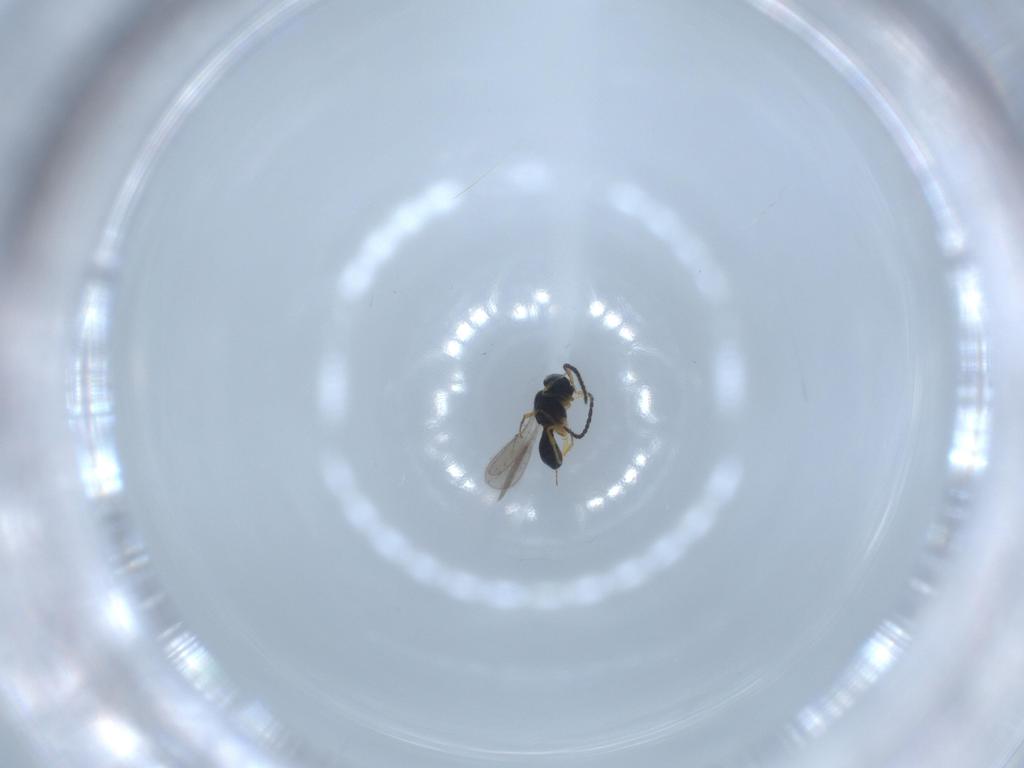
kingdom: Animalia
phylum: Arthropoda
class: Insecta
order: Hymenoptera
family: Scelionidae
